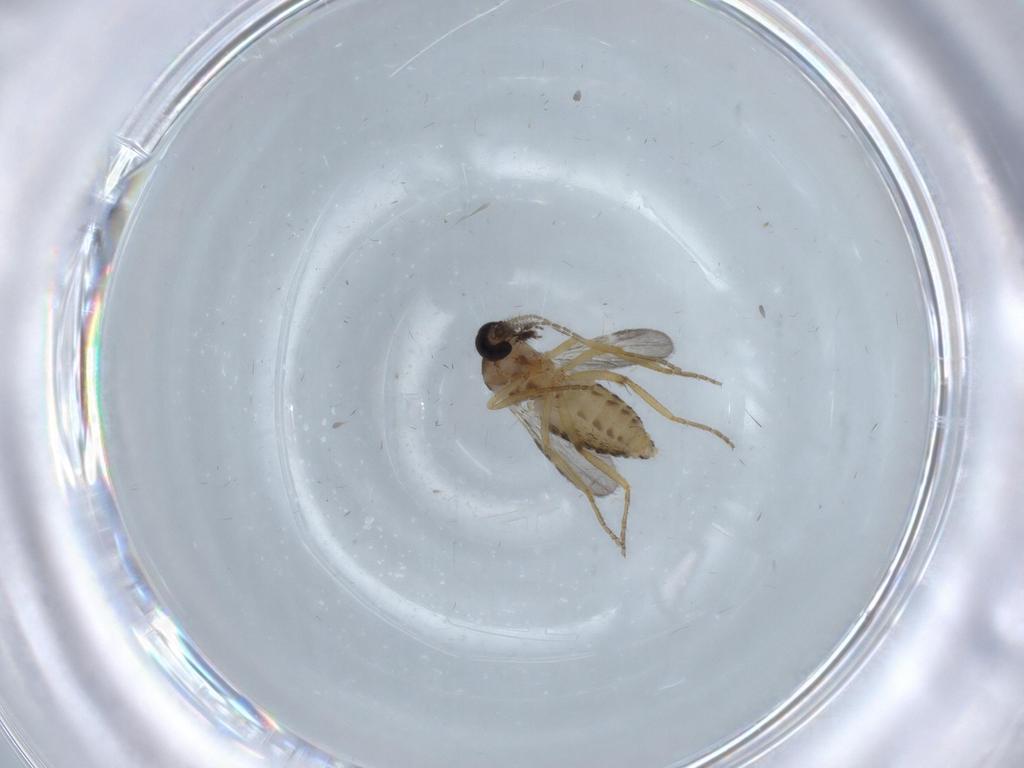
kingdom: Animalia
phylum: Arthropoda
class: Insecta
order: Diptera
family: Ceratopogonidae
